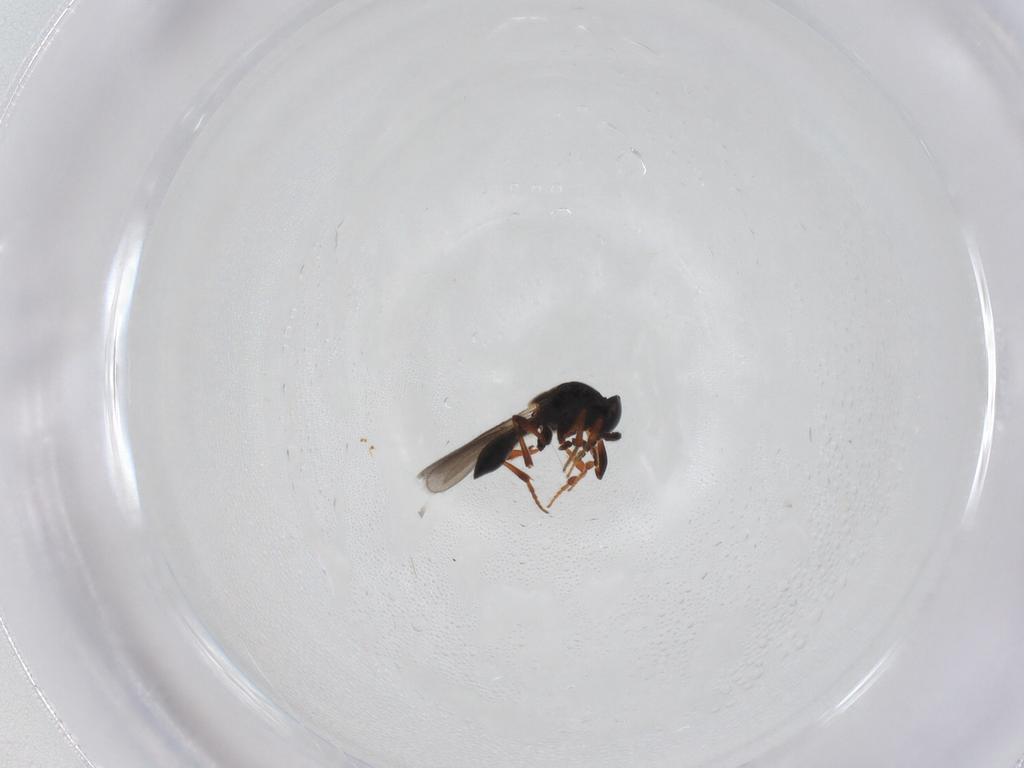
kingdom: Animalia
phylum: Arthropoda
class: Insecta
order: Hymenoptera
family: Platygastridae
